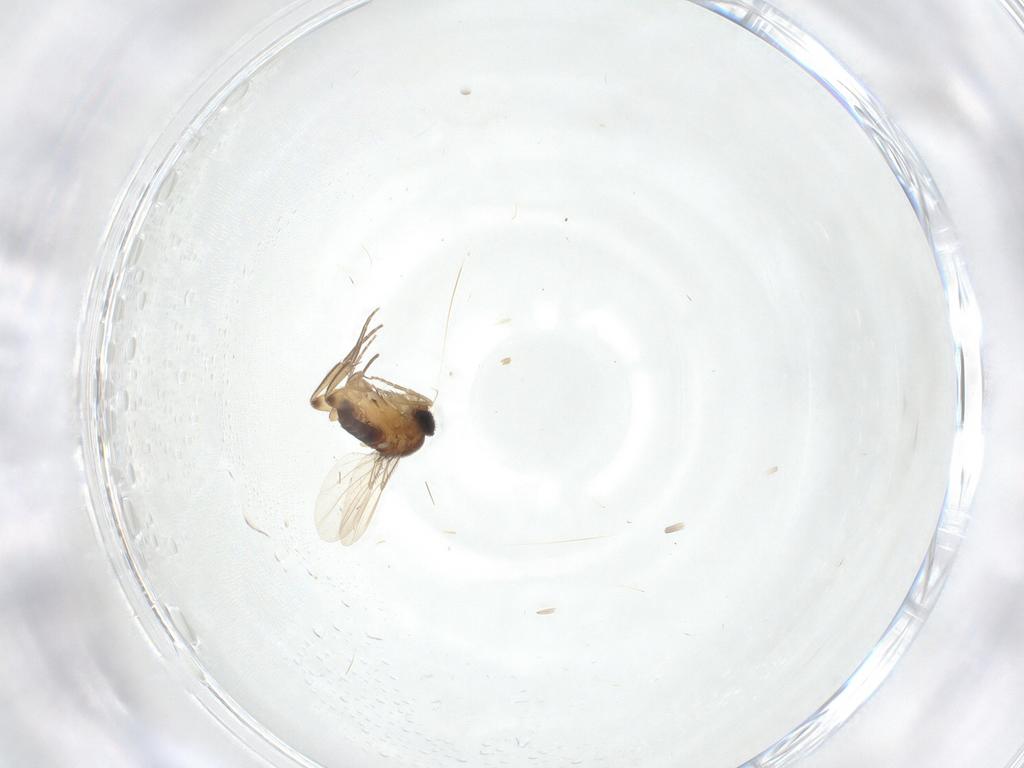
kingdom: Animalia
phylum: Arthropoda
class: Insecta
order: Diptera
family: Phoridae
